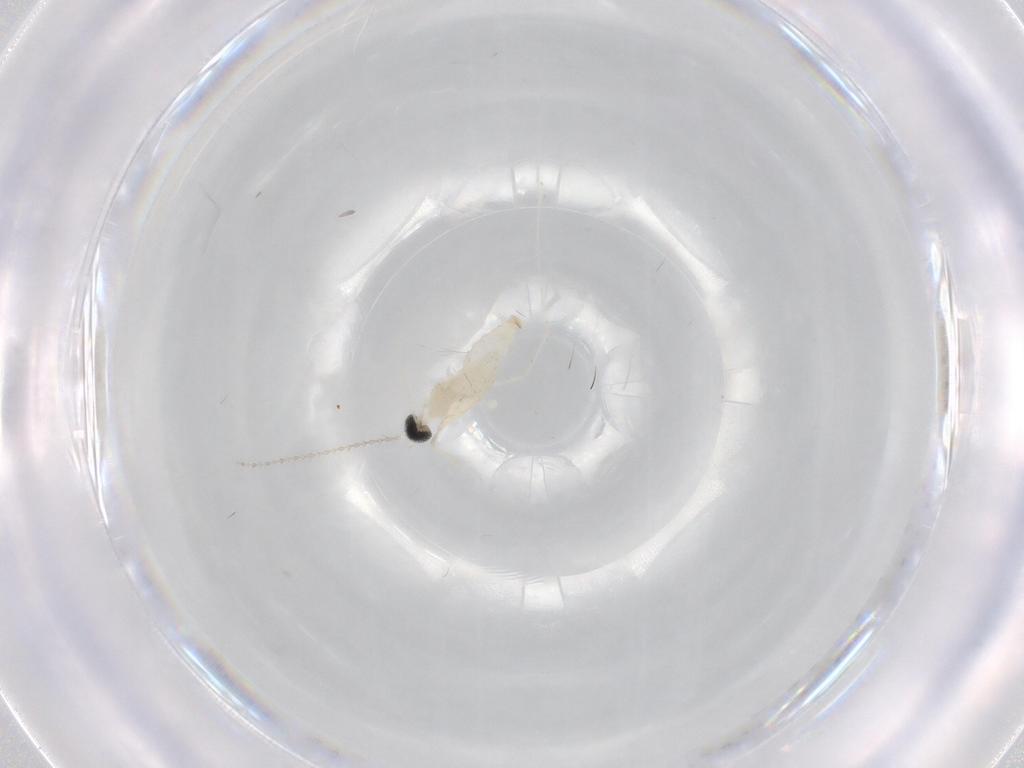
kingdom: Animalia
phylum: Arthropoda
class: Insecta
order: Diptera
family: Cecidomyiidae
